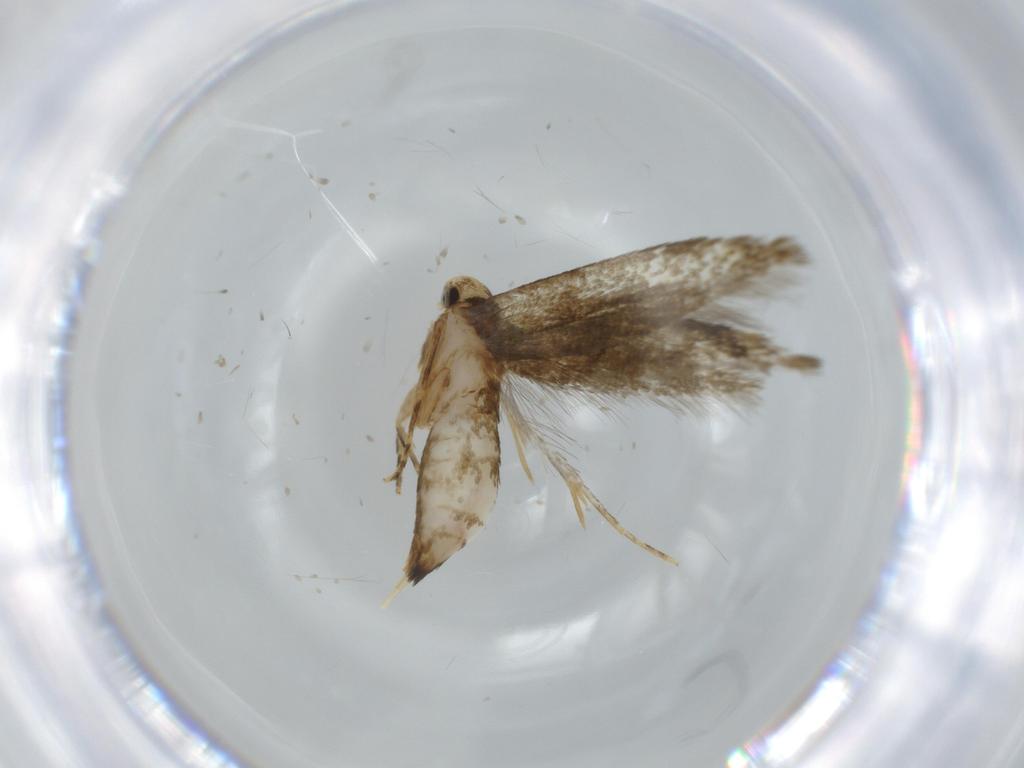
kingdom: Animalia
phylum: Arthropoda
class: Insecta
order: Lepidoptera
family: Tineidae
